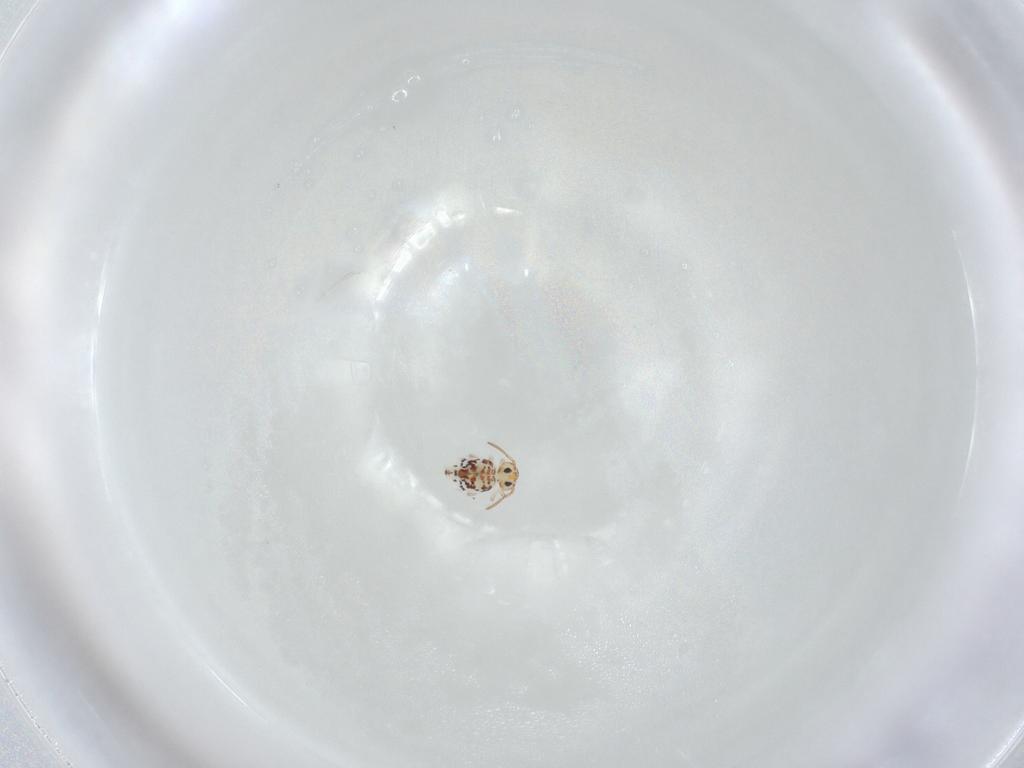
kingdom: Animalia
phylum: Arthropoda
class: Collembola
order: Symphypleona
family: Bourletiellidae
